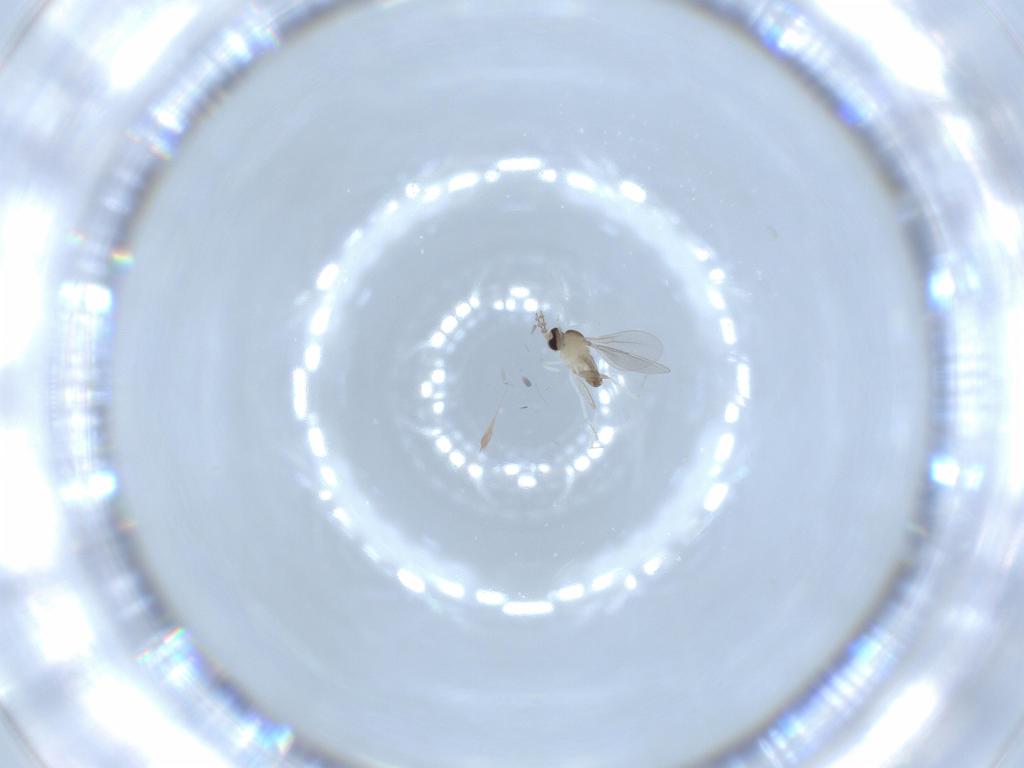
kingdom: Animalia
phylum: Arthropoda
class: Insecta
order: Diptera
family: Cecidomyiidae
